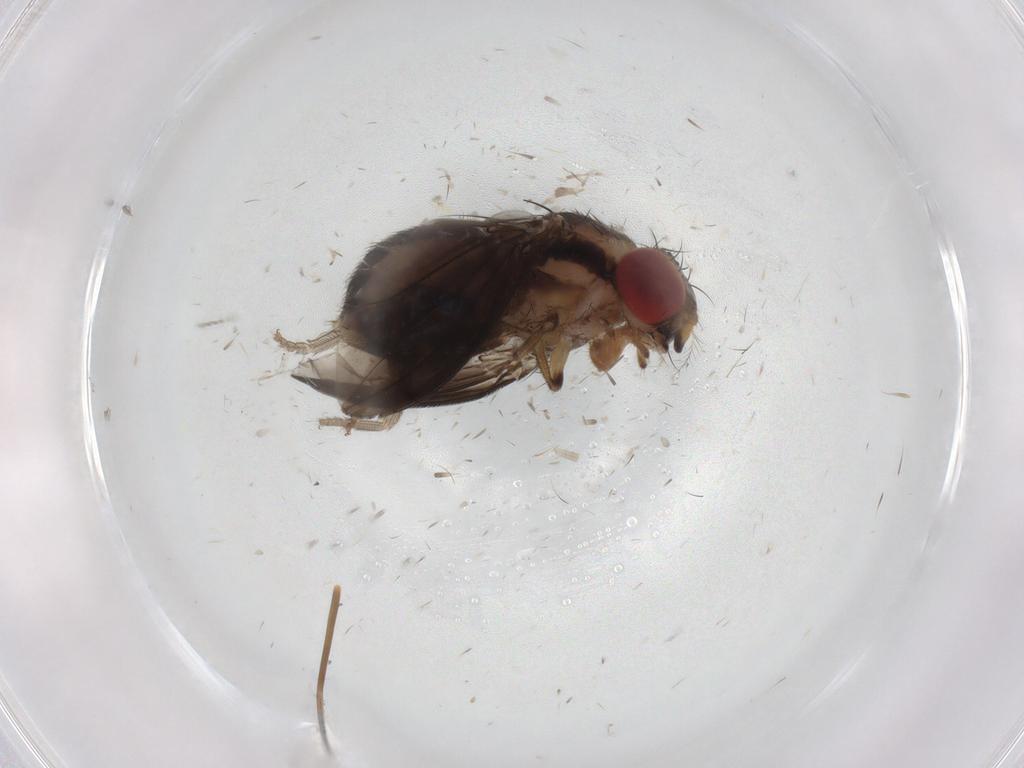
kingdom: Animalia
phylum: Arthropoda
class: Insecta
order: Diptera
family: Drosophilidae
